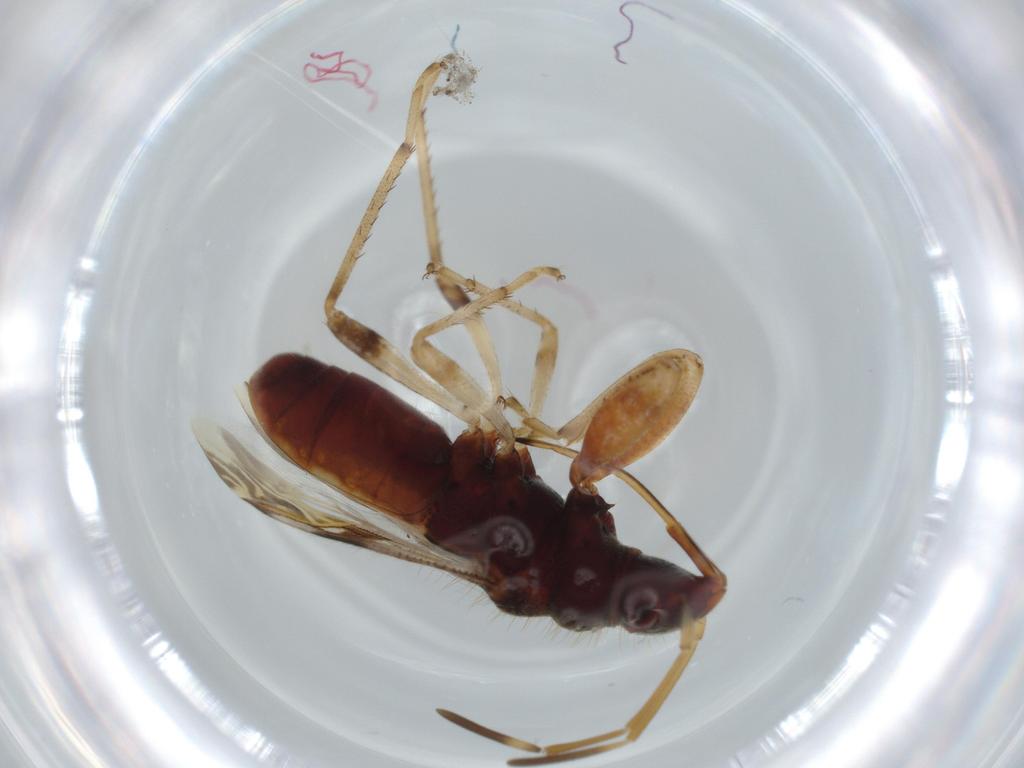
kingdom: Animalia
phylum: Arthropoda
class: Insecta
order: Hemiptera
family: Rhyparochromidae
